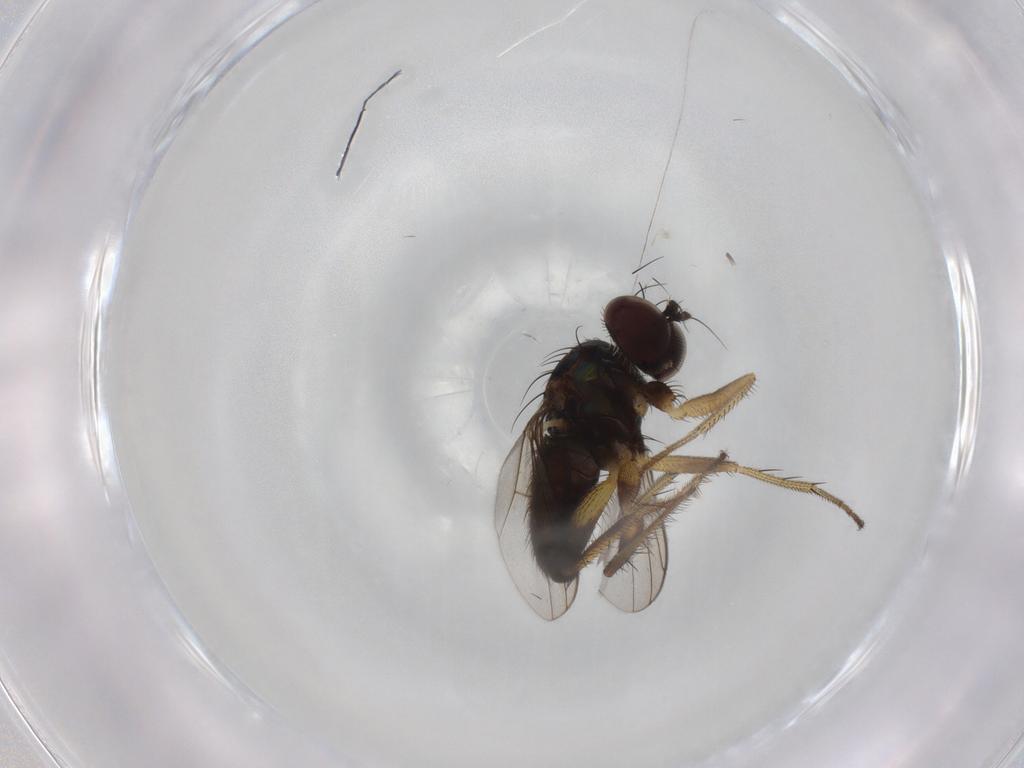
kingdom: Animalia
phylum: Arthropoda
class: Insecta
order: Diptera
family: Dolichopodidae
